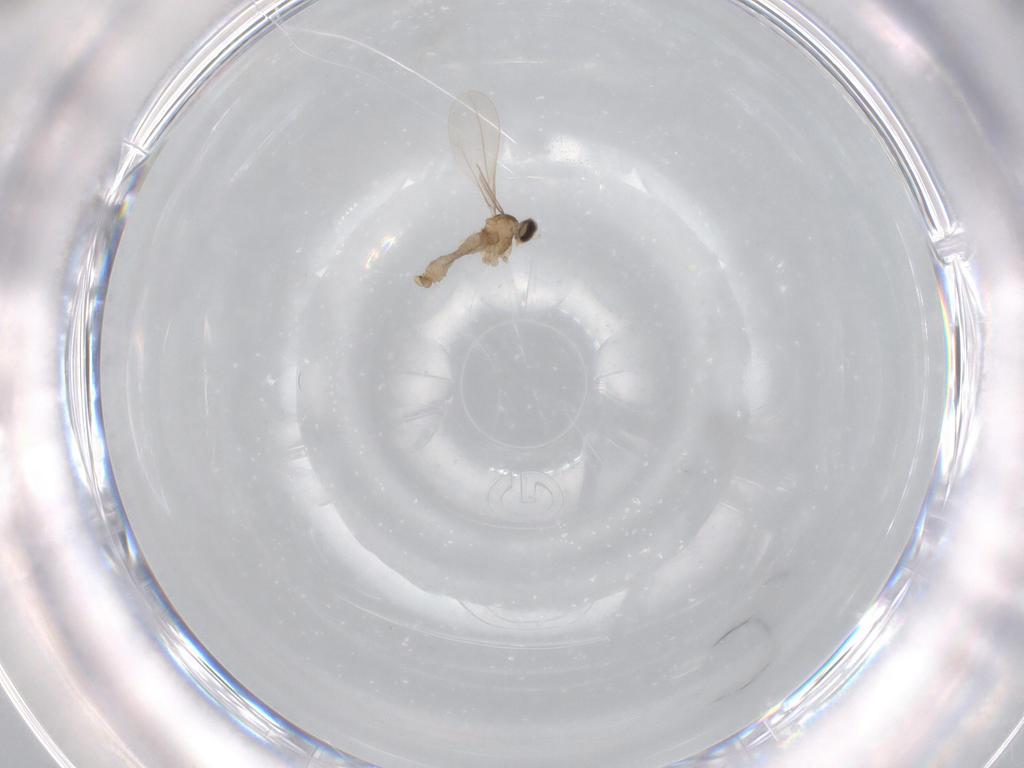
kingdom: Animalia
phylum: Arthropoda
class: Insecta
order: Diptera
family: Cecidomyiidae
